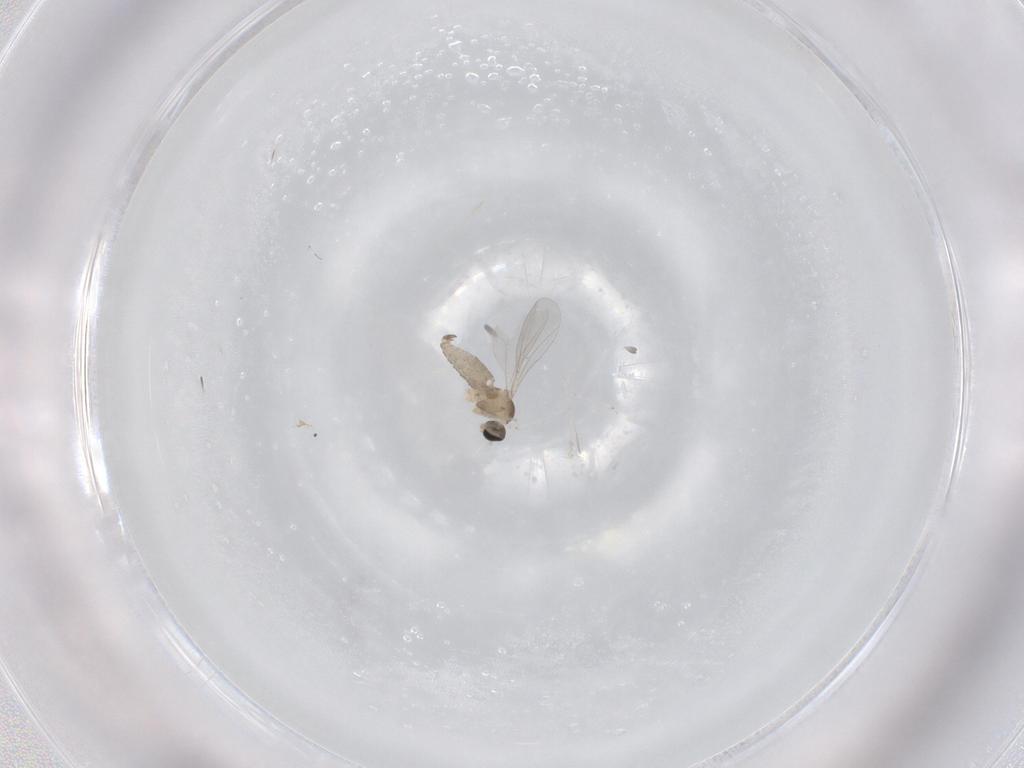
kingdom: Animalia
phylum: Arthropoda
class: Insecta
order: Diptera
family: Cecidomyiidae
